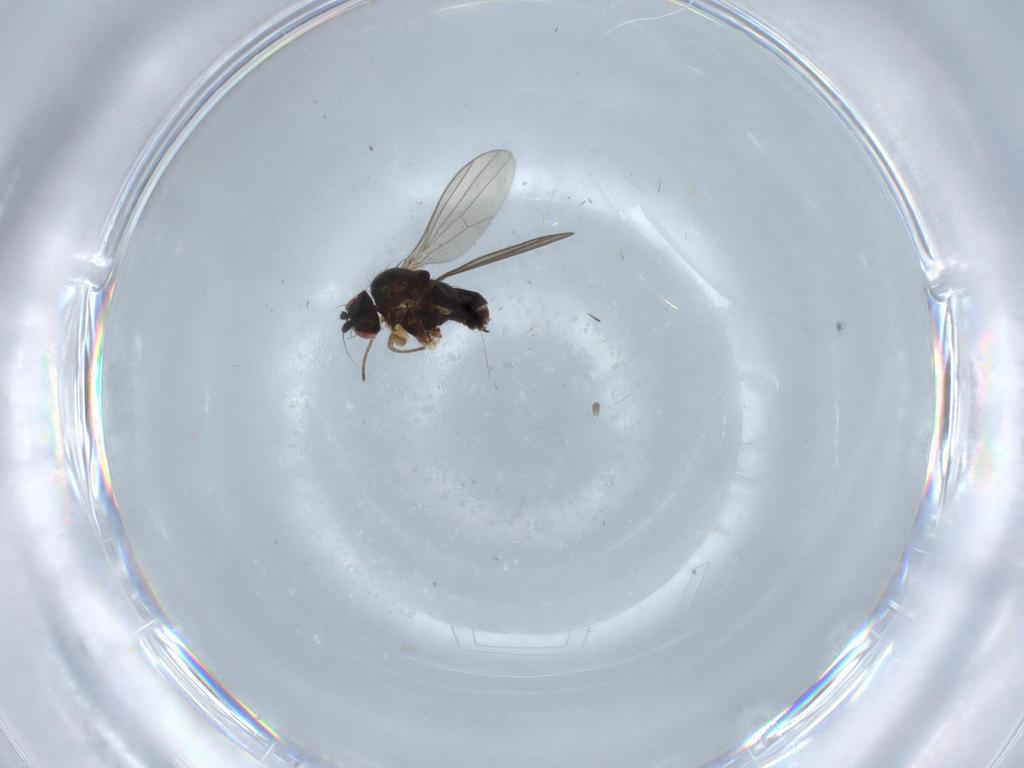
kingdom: Animalia
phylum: Arthropoda
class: Insecta
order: Diptera
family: Dolichopodidae
